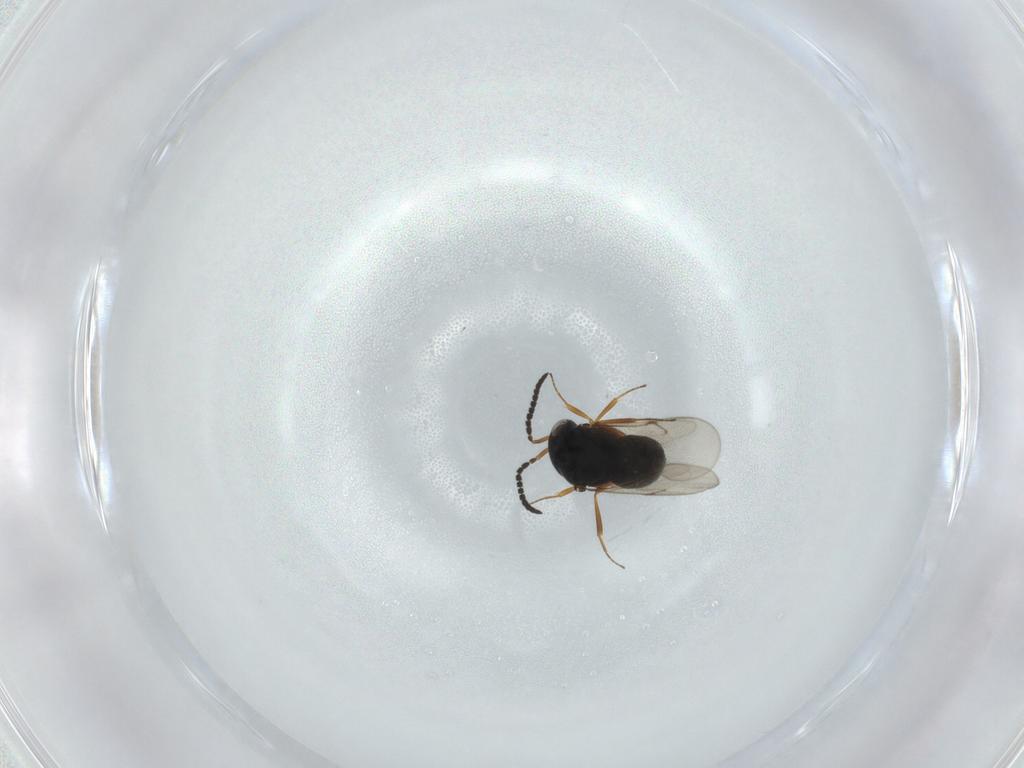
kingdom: Animalia
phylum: Arthropoda
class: Insecta
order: Hymenoptera
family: Scelionidae
